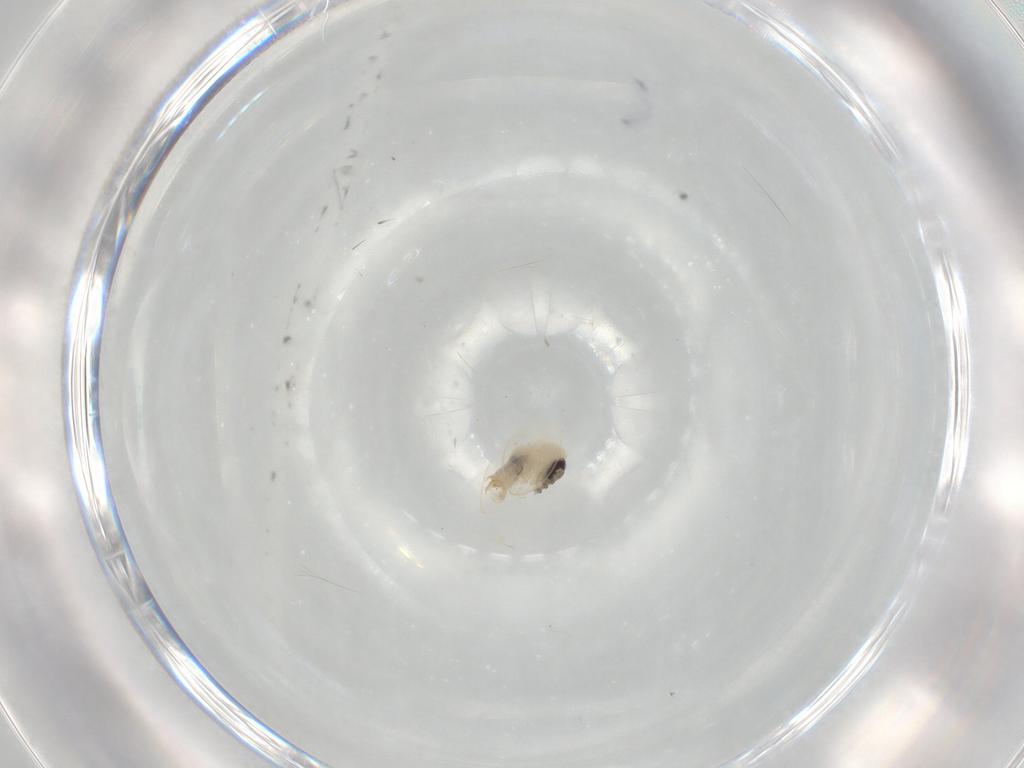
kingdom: Animalia
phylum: Arthropoda
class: Insecta
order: Diptera
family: Psychodidae
